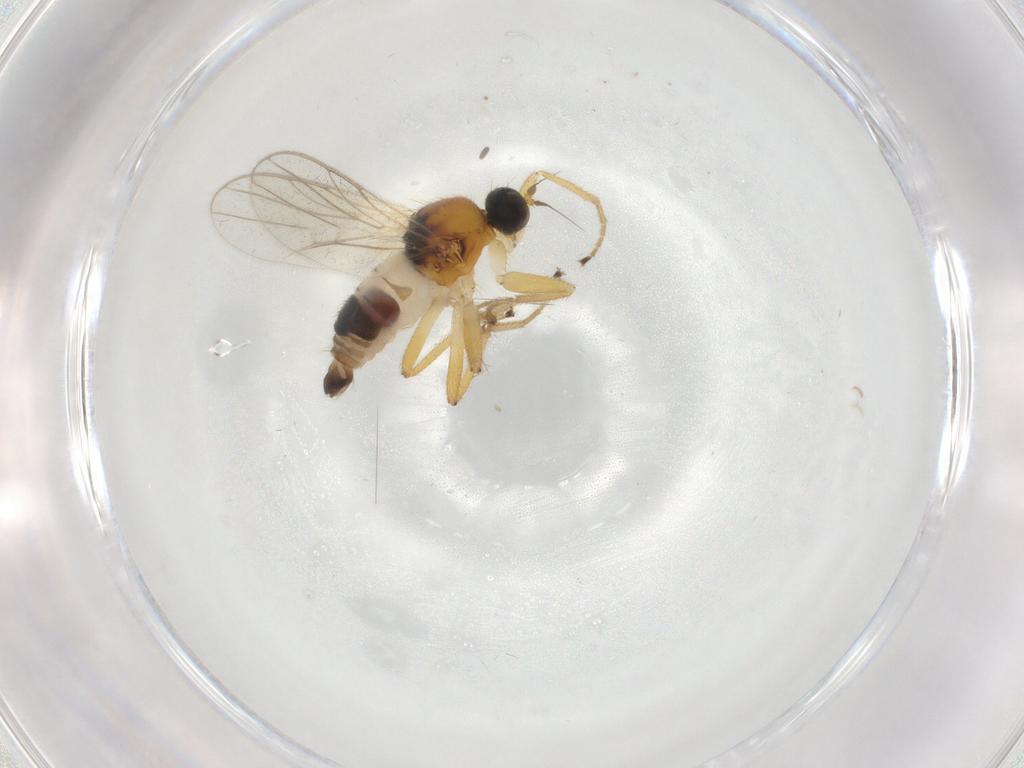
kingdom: Animalia
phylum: Arthropoda
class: Insecta
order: Diptera
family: Hybotidae
